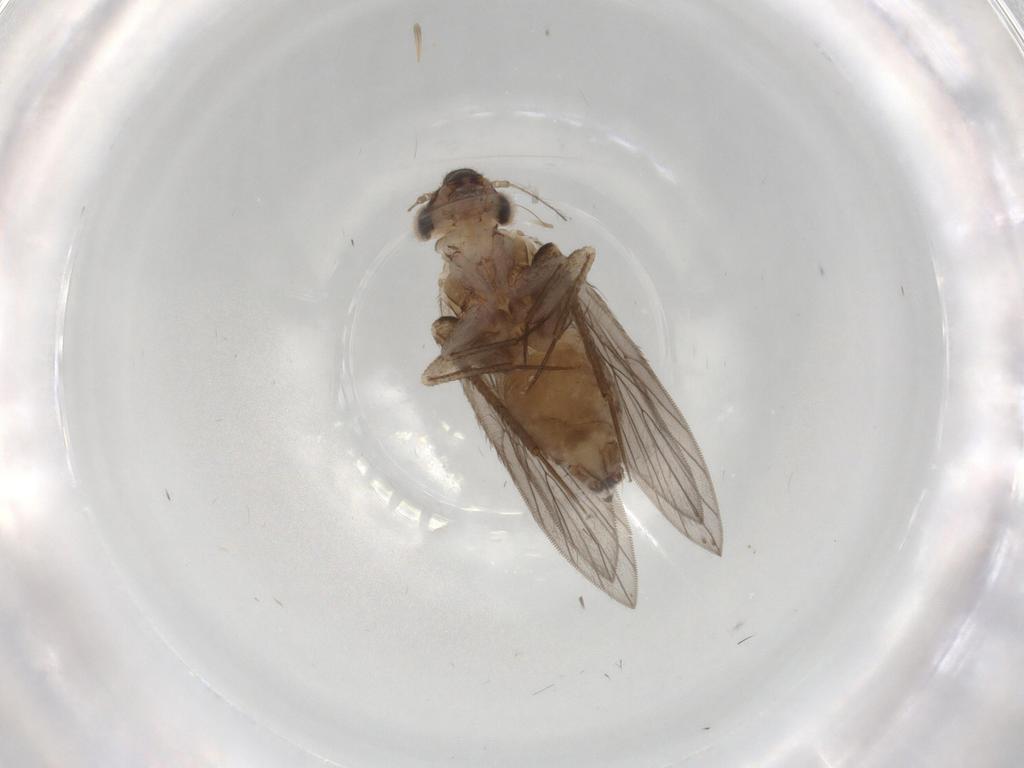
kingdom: Animalia
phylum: Arthropoda
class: Insecta
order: Psocodea
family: Lepidopsocidae
